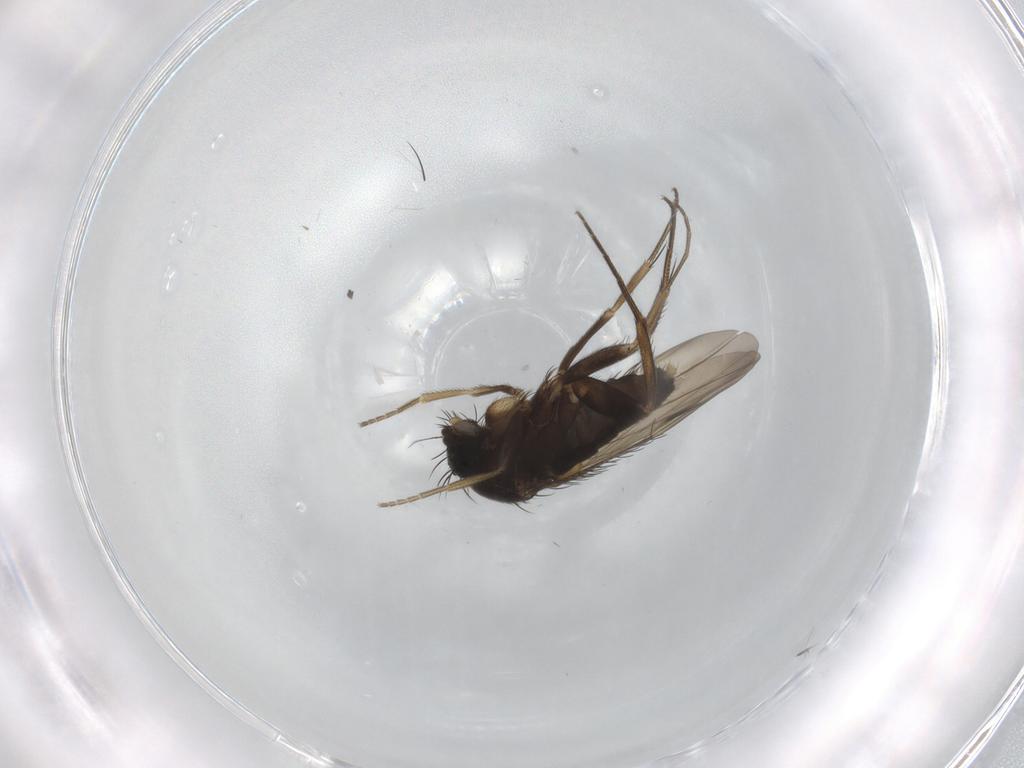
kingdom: Animalia
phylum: Arthropoda
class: Insecta
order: Diptera
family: Phoridae
